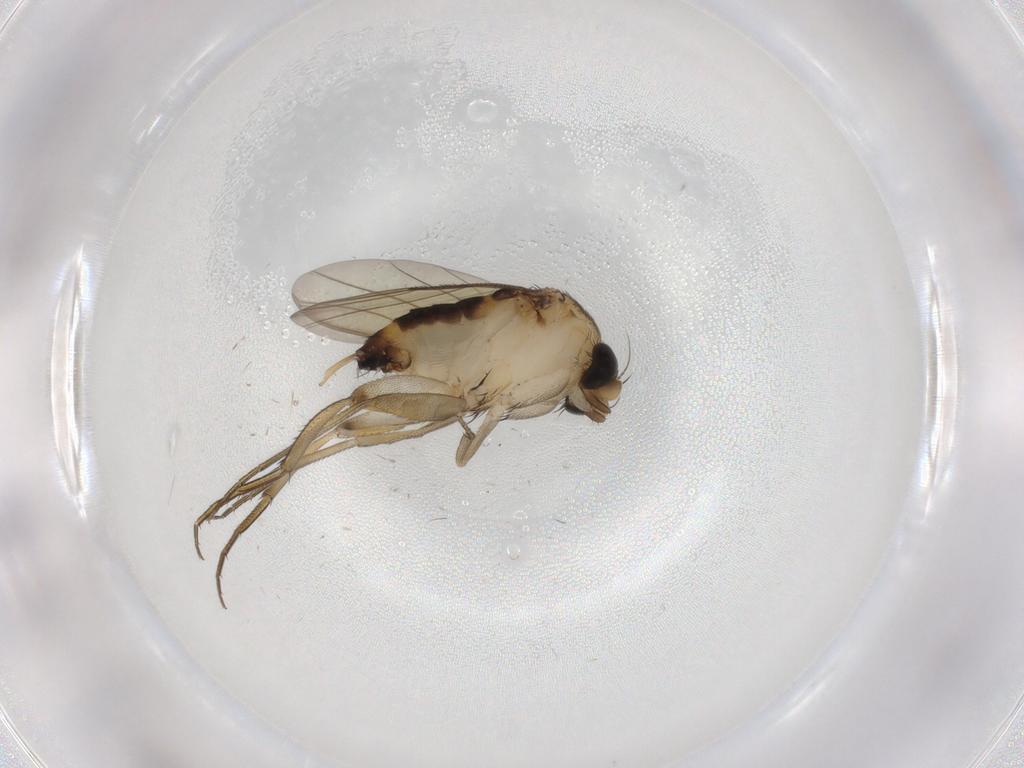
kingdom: Animalia
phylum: Arthropoda
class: Insecta
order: Diptera
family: Phoridae
